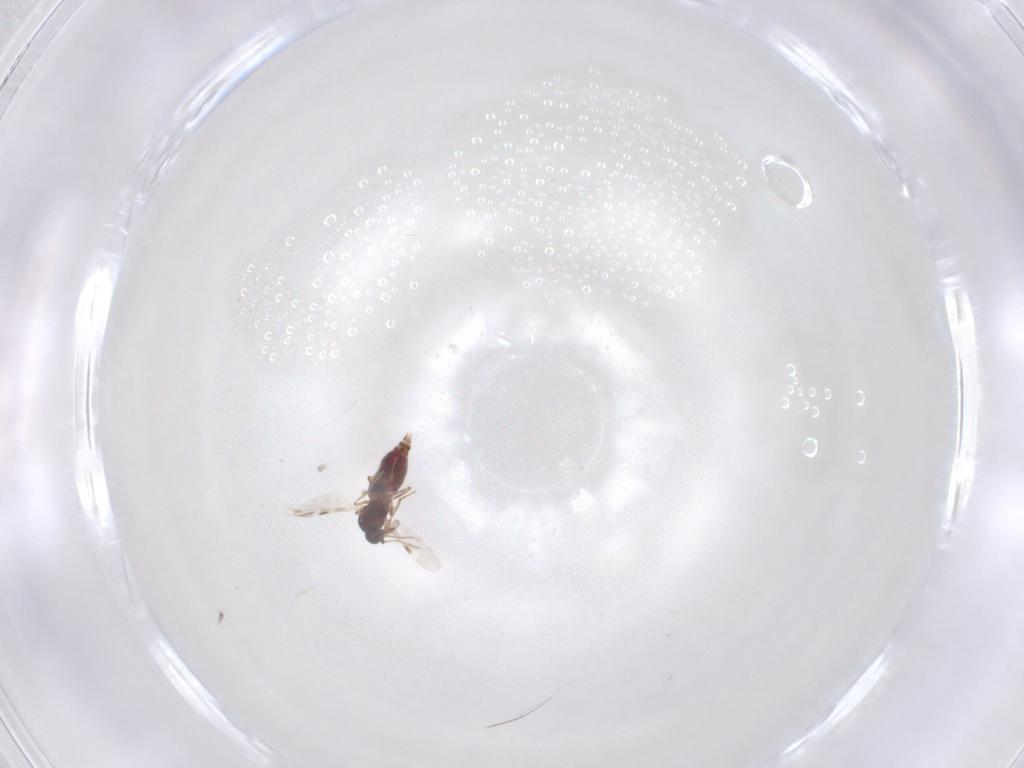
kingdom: Animalia
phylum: Arthropoda
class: Insecta
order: Diptera
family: Cecidomyiidae
